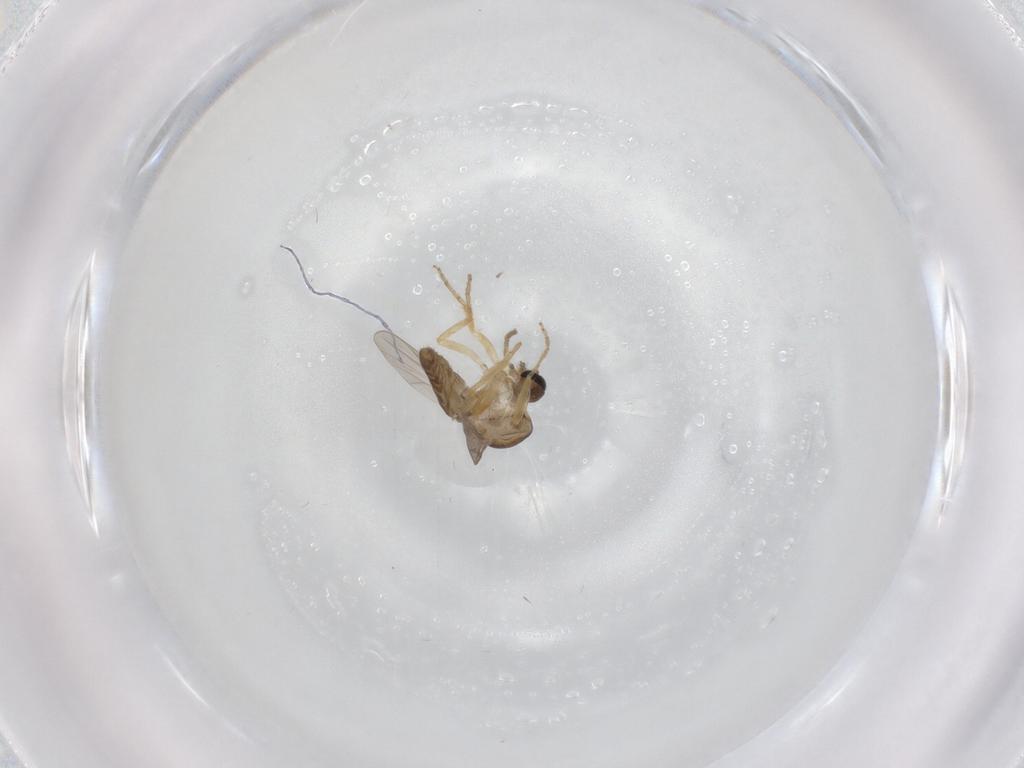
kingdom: Animalia
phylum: Arthropoda
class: Insecta
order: Diptera
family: Ceratopogonidae
